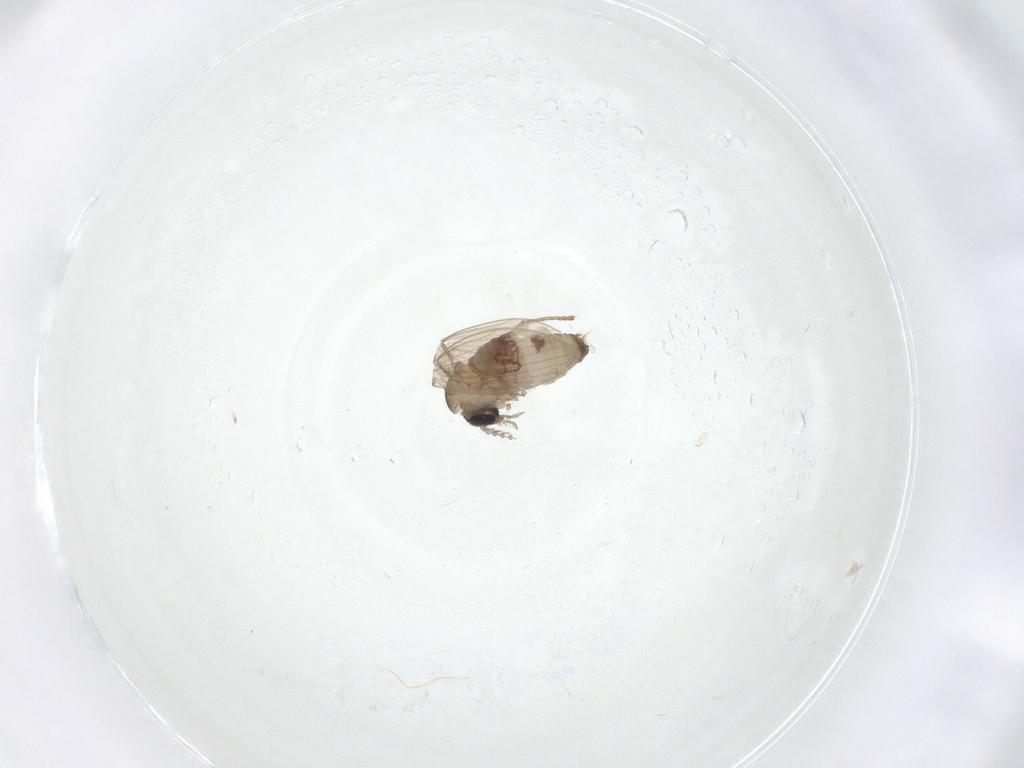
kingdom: Animalia
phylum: Arthropoda
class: Insecta
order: Diptera
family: Psychodidae
